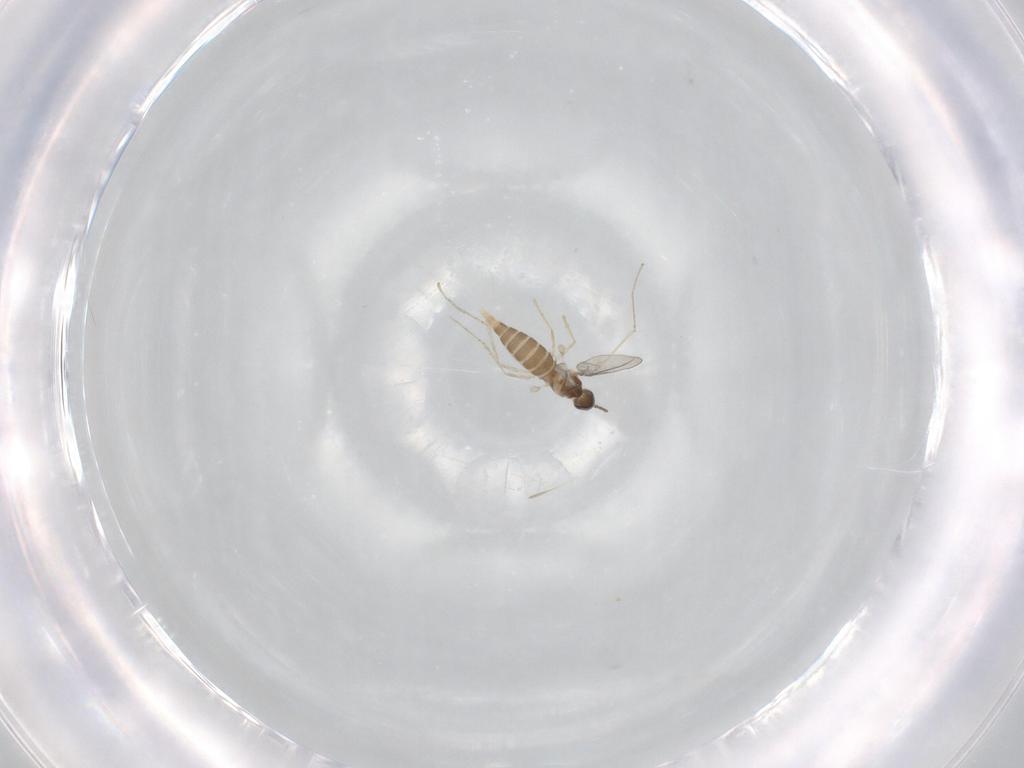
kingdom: Animalia
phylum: Arthropoda
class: Insecta
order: Diptera
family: Cecidomyiidae
